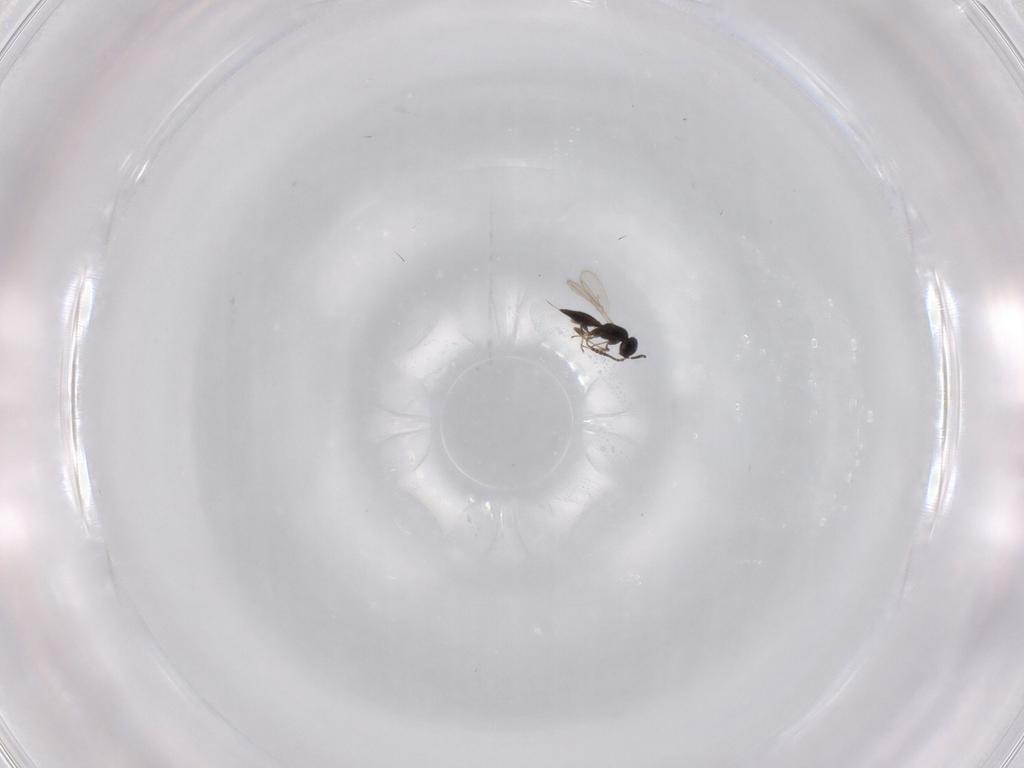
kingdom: Animalia
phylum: Arthropoda
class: Insecta
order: Hymenoptera
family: Scelionidae
